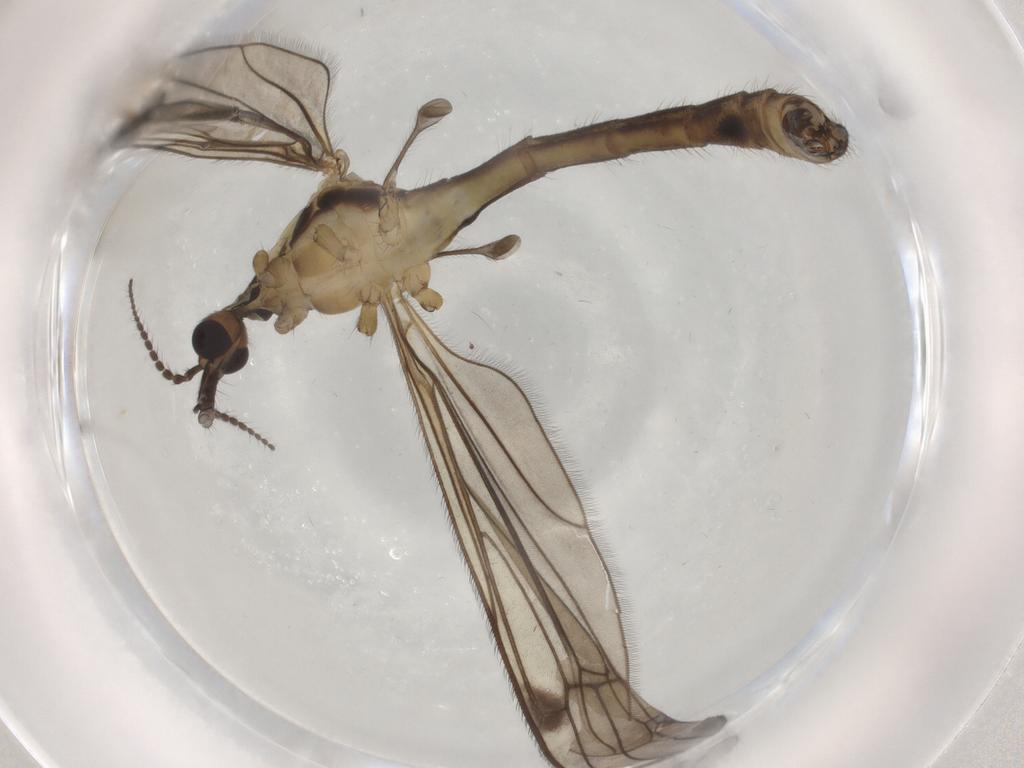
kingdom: Animalia
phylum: Arthropoda
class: Insecta
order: Diptera
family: Limoniidae
